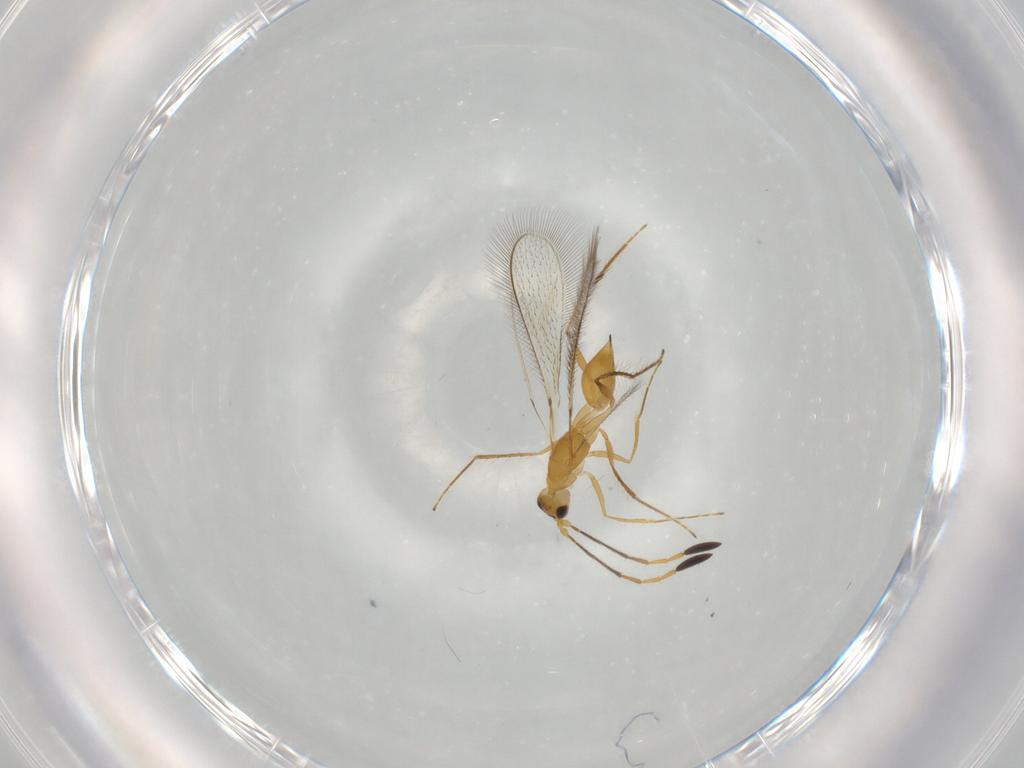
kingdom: Animalia
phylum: Arthropoda
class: Insecta
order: Hymenoptera
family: Mymaridae
